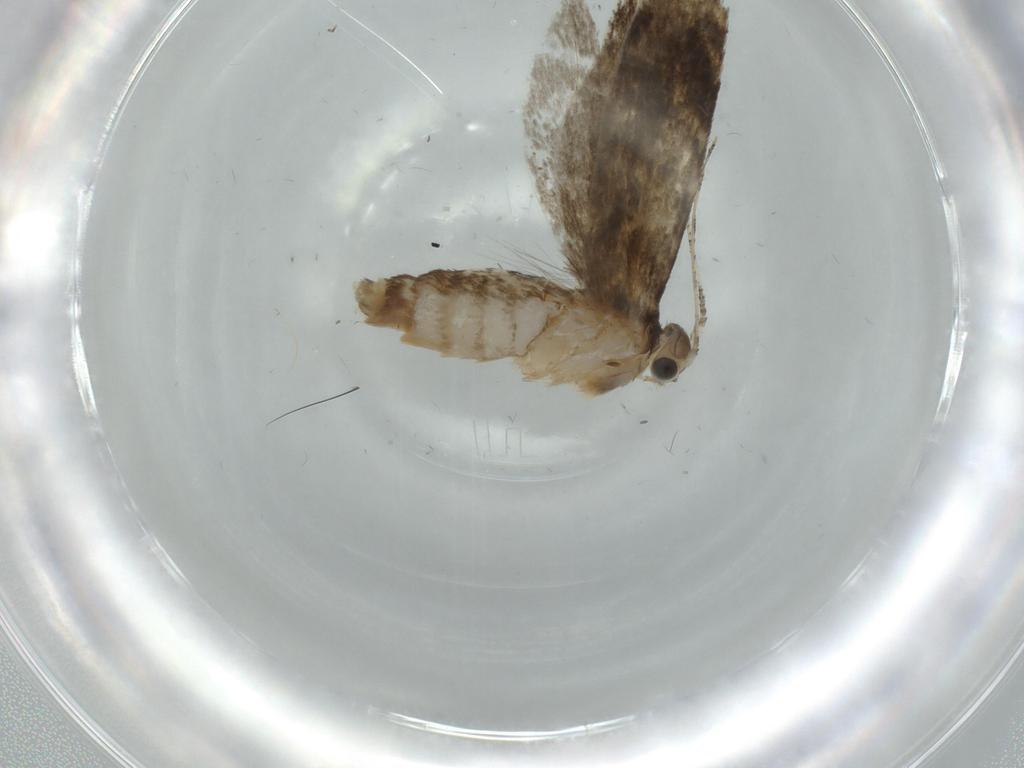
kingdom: Animalia
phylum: Arthropoda
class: Insecta
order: Lepidoptera
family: Tineidae
